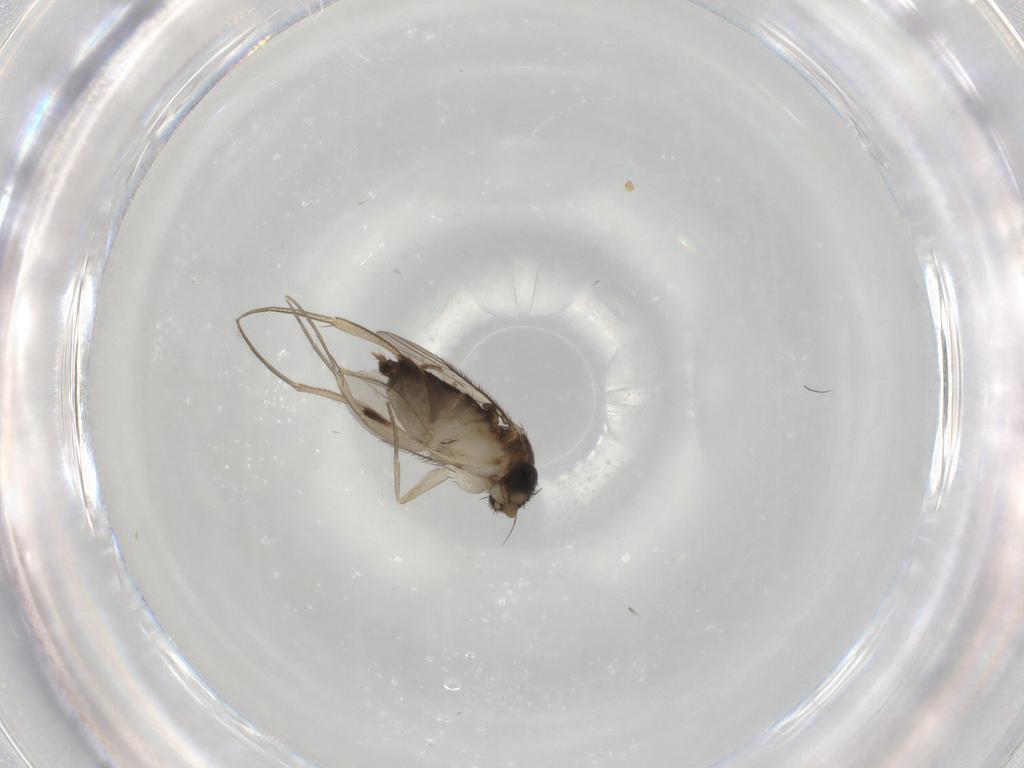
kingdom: Animalia
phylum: Arthropoda
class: Insecta
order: Diptera
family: Phoridae
